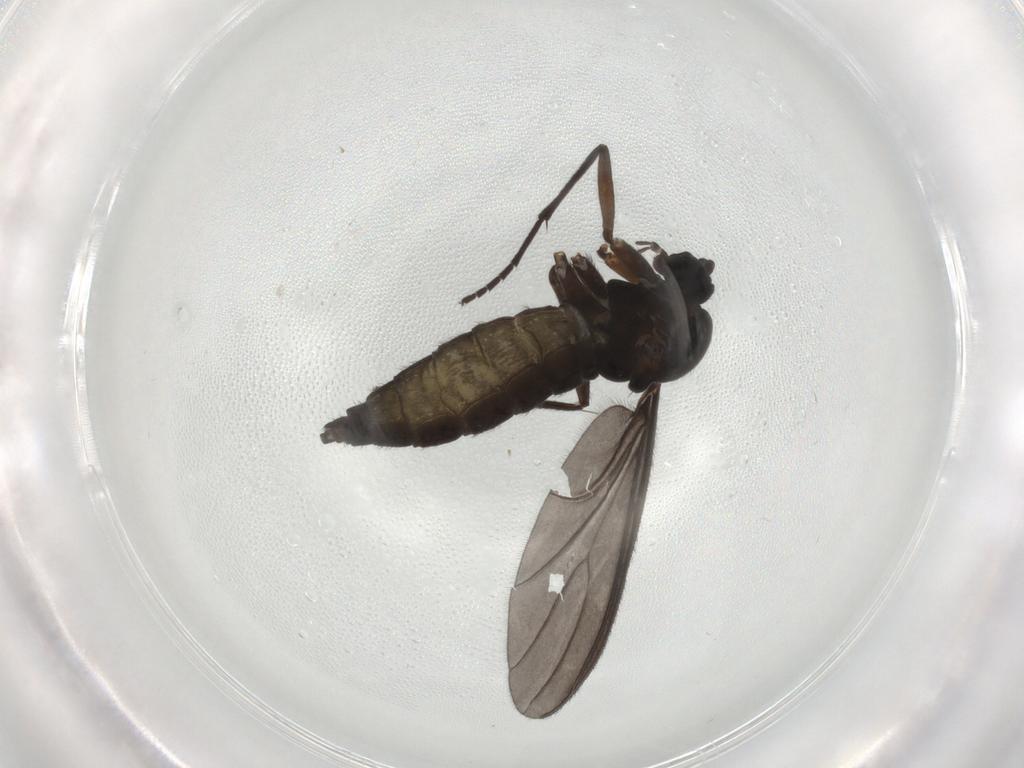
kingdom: Animalia
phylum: Arthropoda
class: Insecta
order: Diptera
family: Sciaridae
